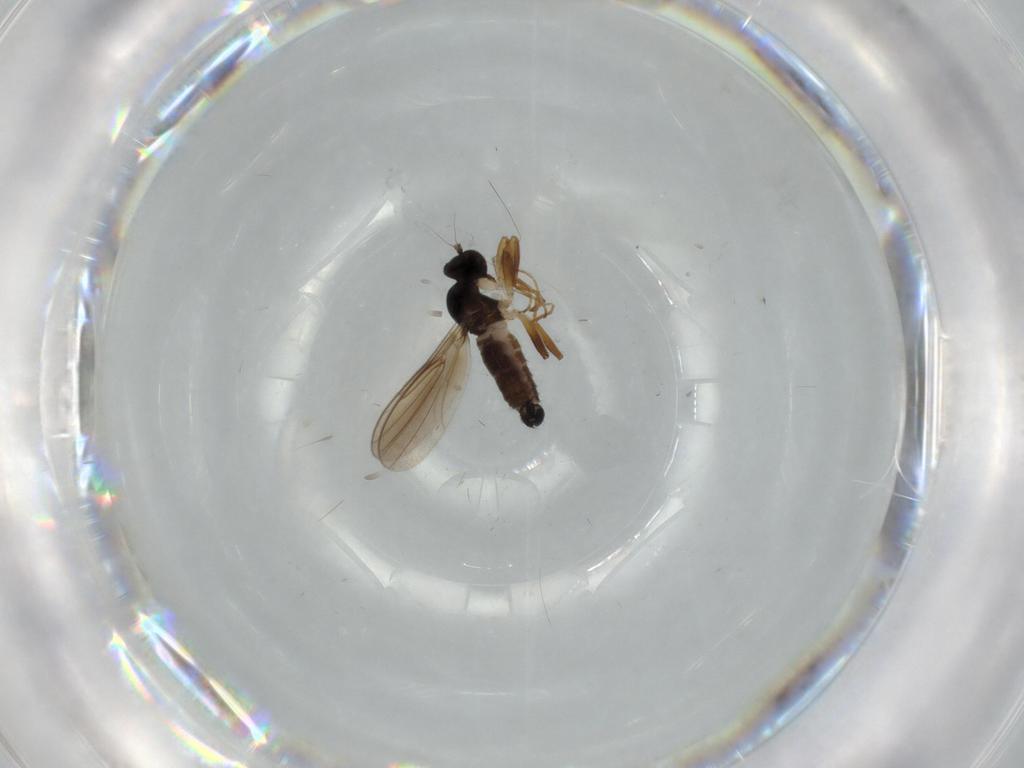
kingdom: Animalia
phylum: Arthropoda
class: Insecta
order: Diptera
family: Hybotidae
